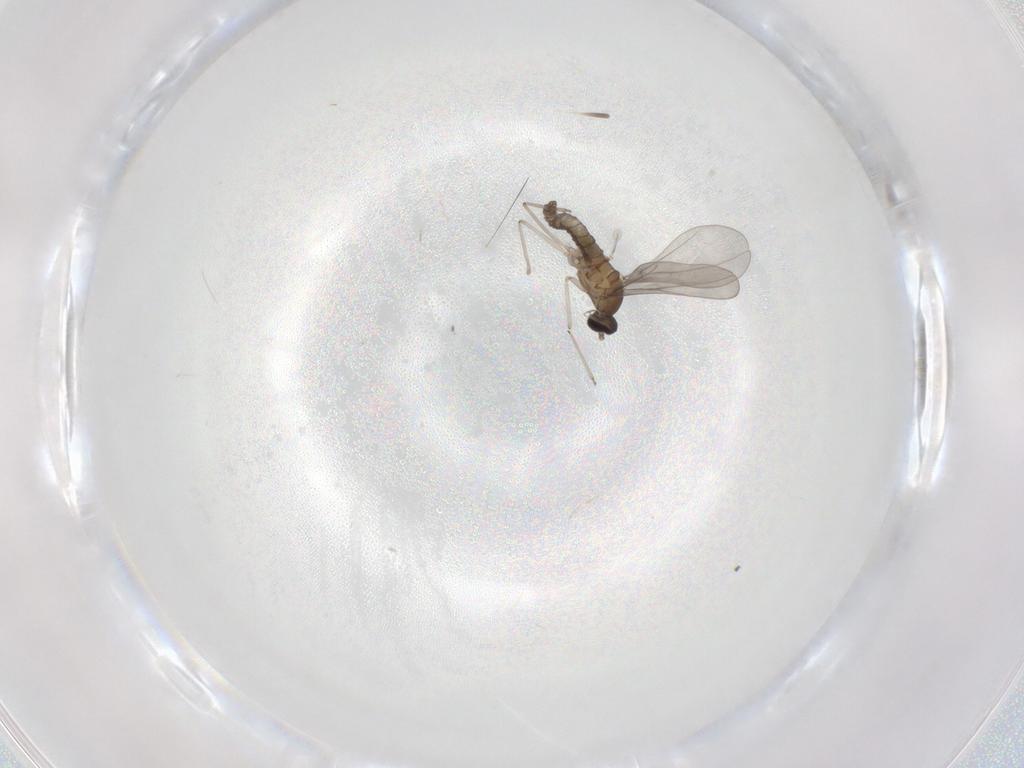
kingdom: Animalia
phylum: Arthropoda
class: Insecta
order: Diptera
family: Cecidomyiidae
